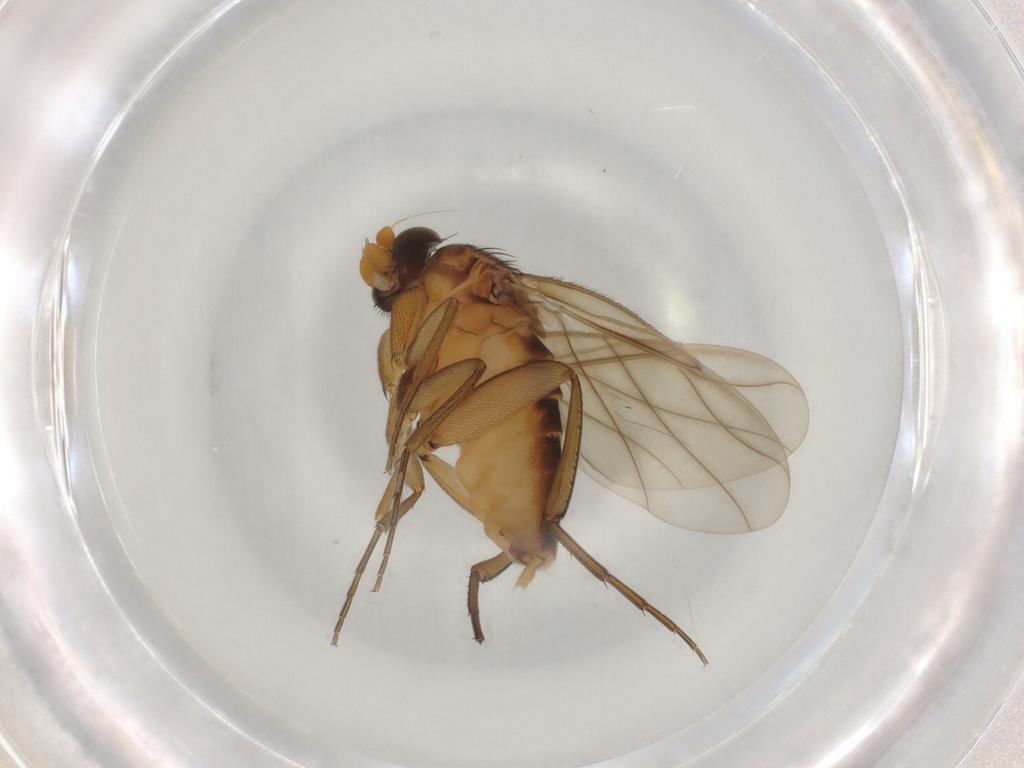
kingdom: Animalia
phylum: Arthropoda
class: Insecta
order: Diptera
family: Phoridae
